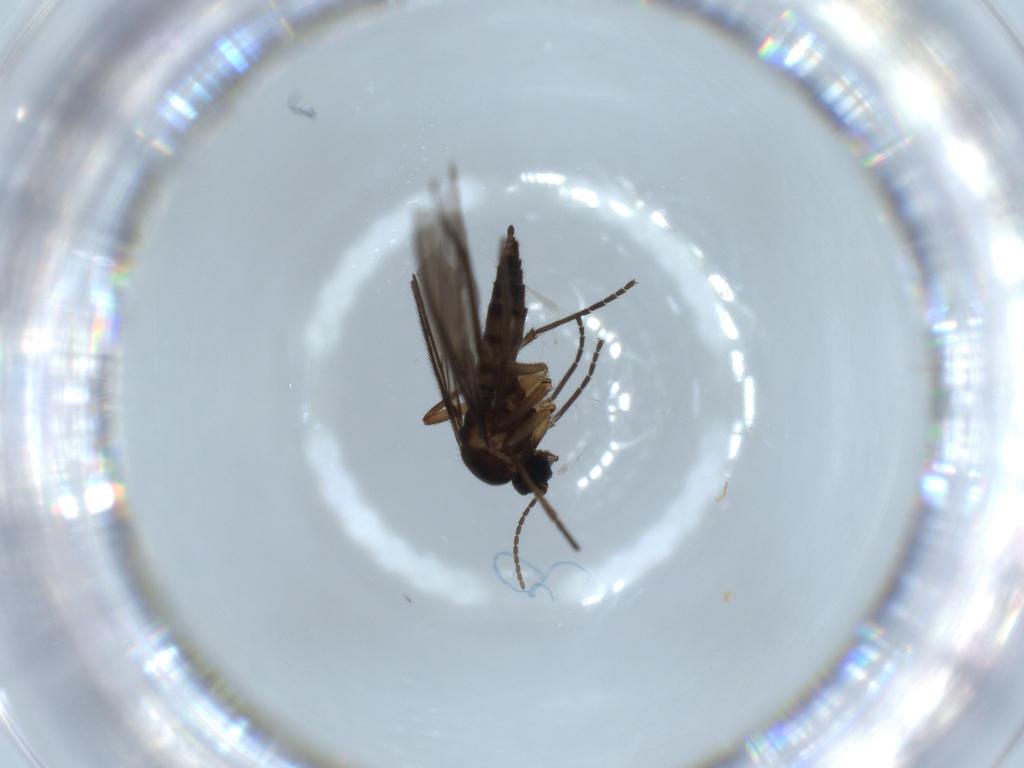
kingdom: Animalia
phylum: Arthropoda
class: Insecta
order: Diptera
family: Sciaridae
